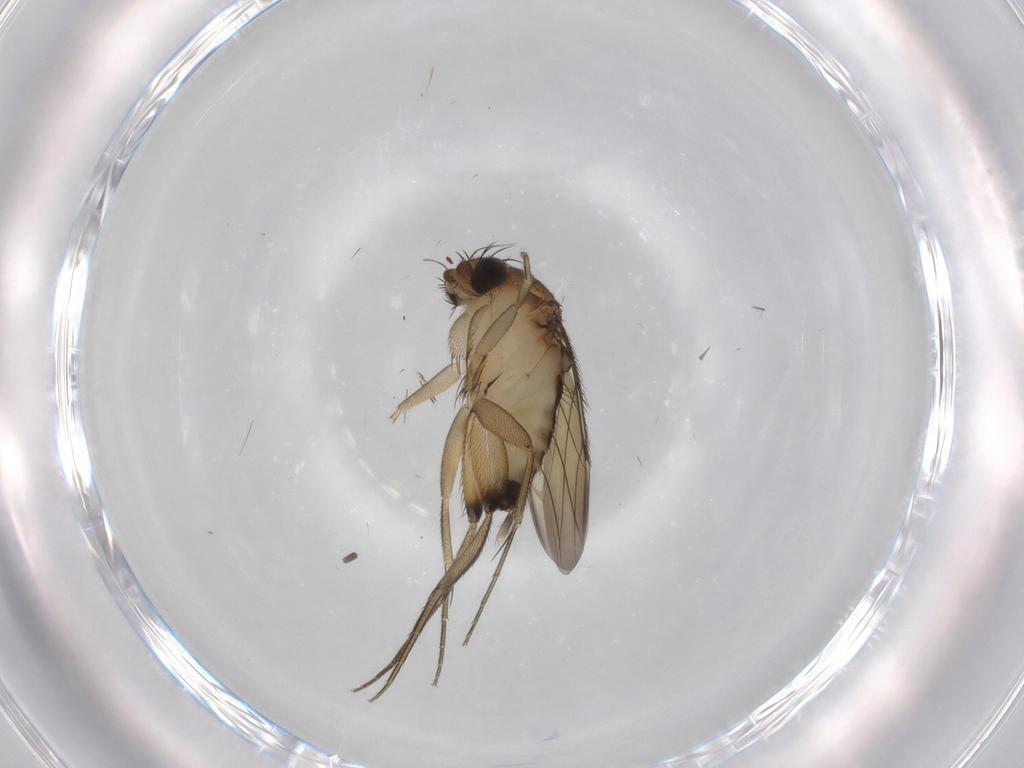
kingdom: Animalia
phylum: Arthropoda
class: Insecta
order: Diptera
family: Phoridae
